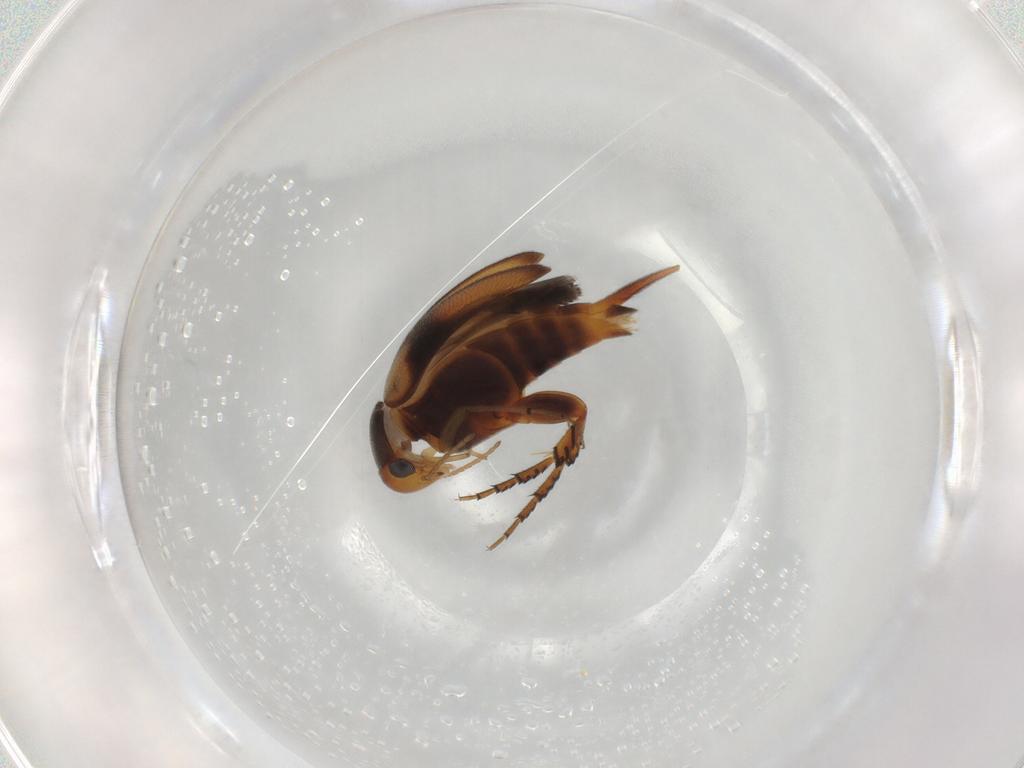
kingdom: Animalia
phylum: Arthropoda
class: Insecta
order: Coleoptera
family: Mordellidae
